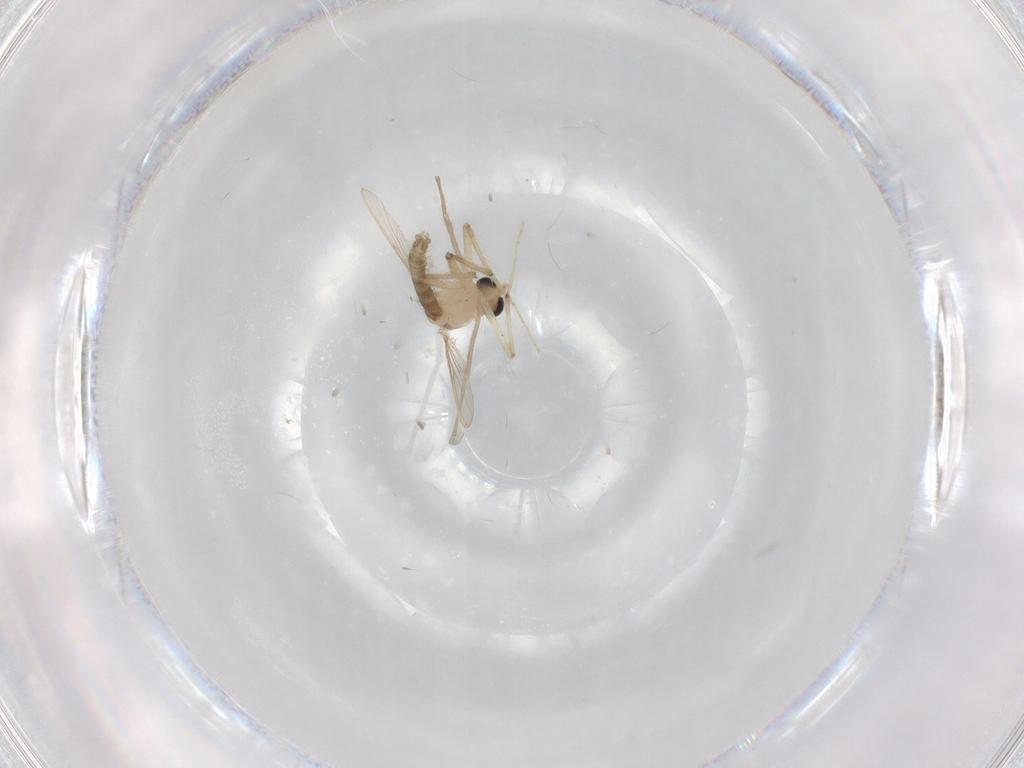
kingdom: Animalia
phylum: Arthropoda
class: Insecta
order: Diptera
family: Chironomidae
